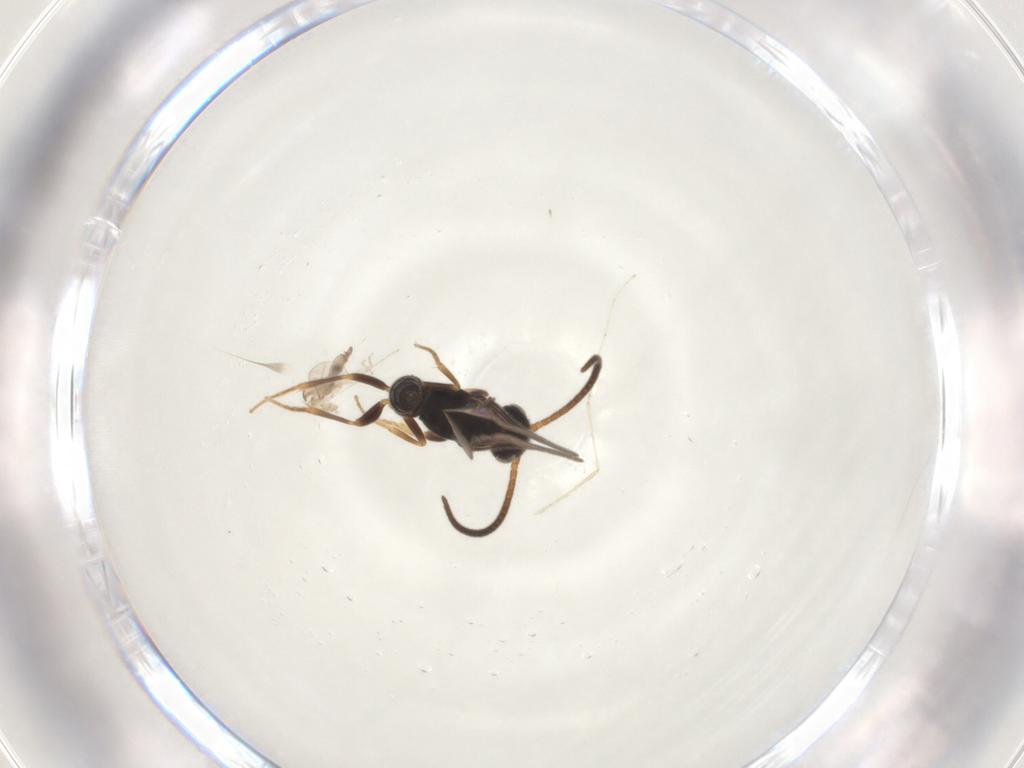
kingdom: Animalia
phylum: Arthropoda
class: Insecta
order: Hymenoptera
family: Sclerogibbidae
